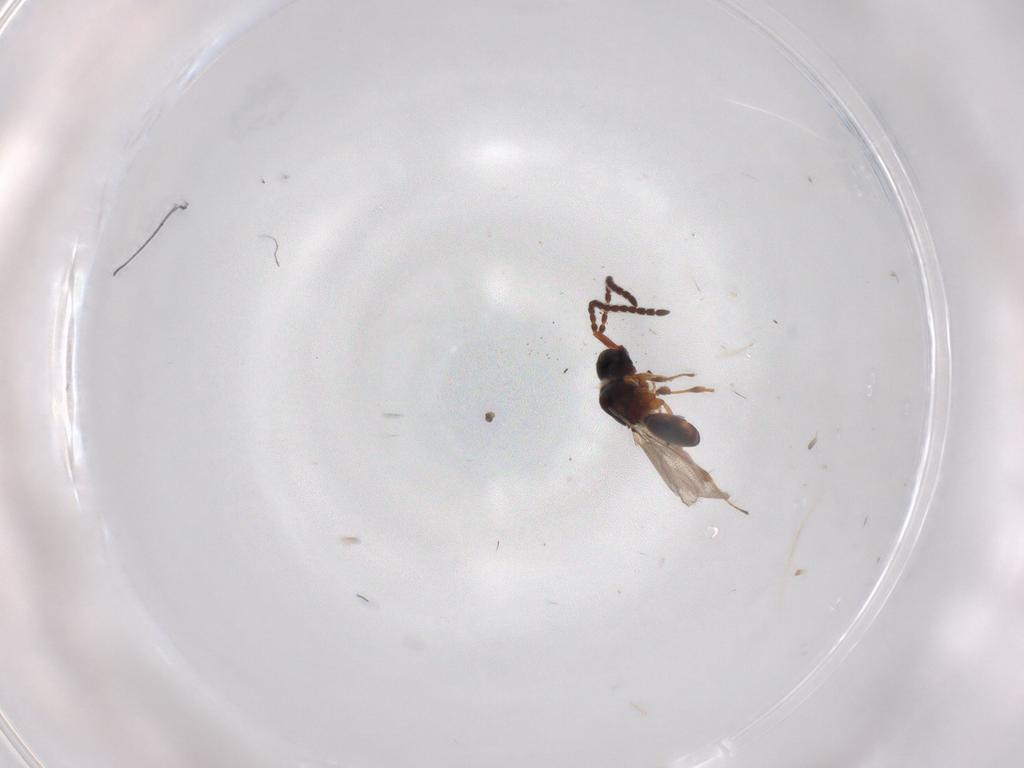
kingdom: Animalia
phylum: Arthropoda
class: Insecta
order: Hymenoptera
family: Diapriidae
